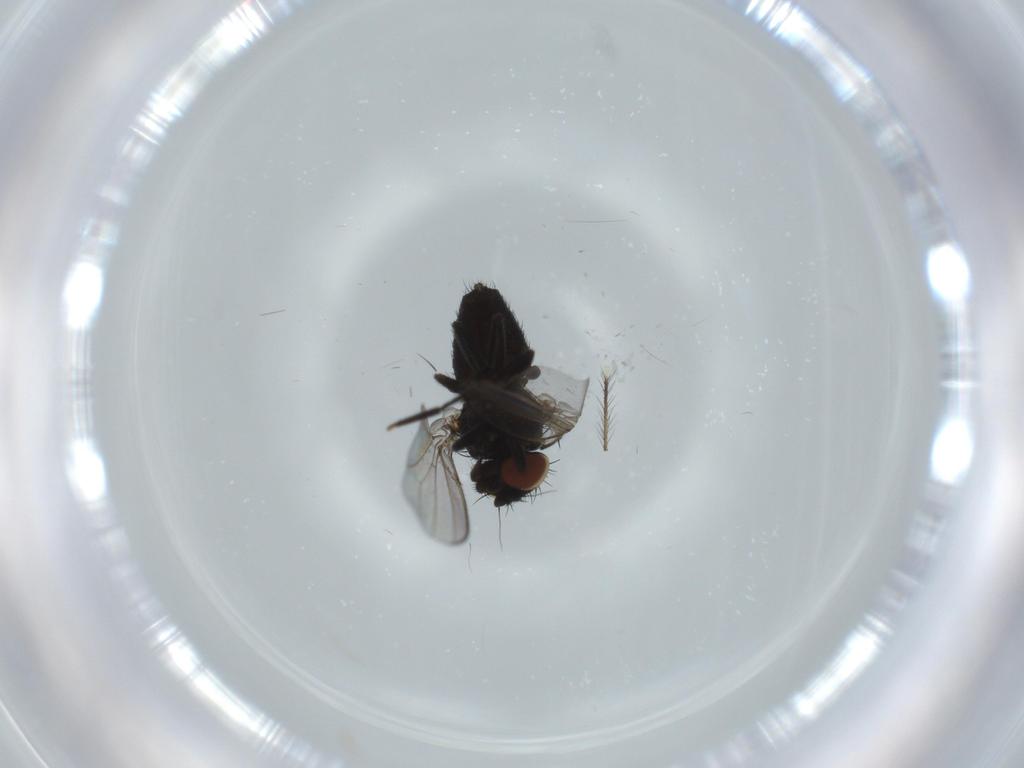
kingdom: Animalia
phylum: Arthropoda
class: Insecta
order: Diptera
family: Milichiidae
